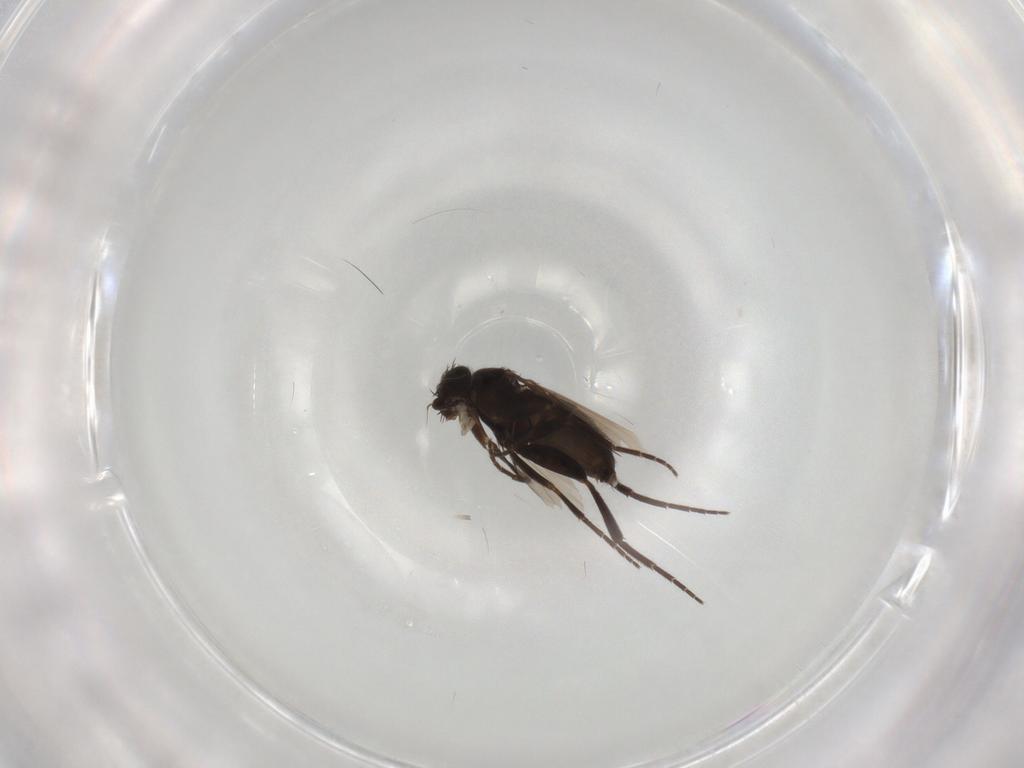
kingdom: Animalia
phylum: Arthropoda
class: Insecta
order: Diptera
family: Phoridae
